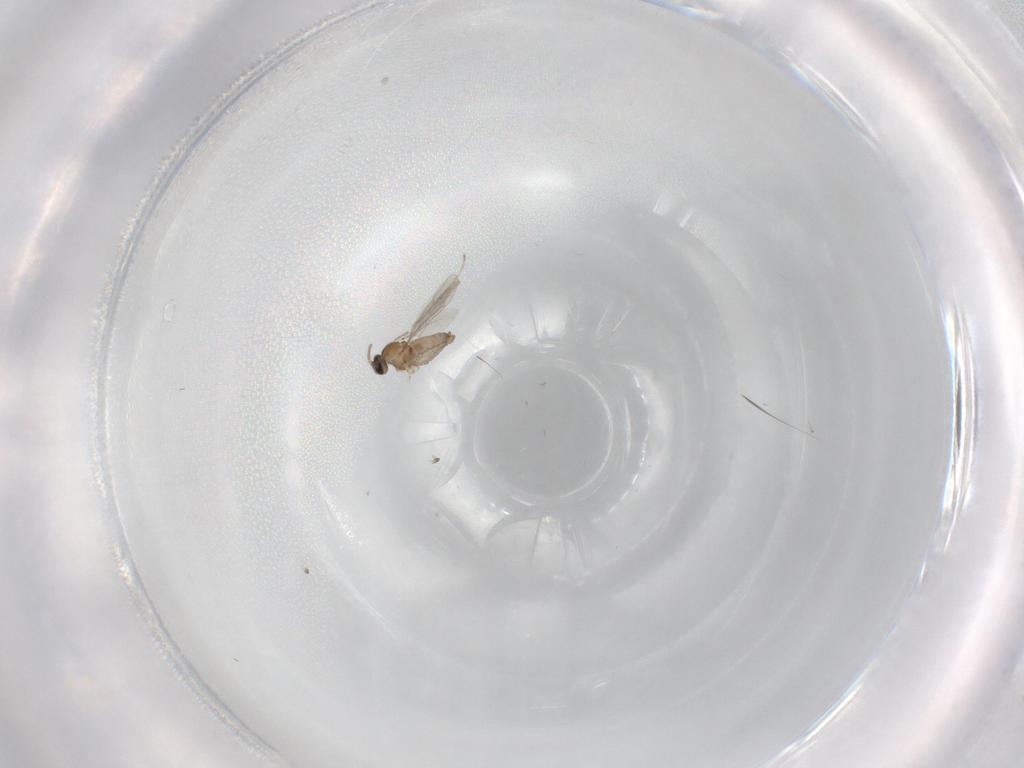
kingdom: Animalia
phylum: Arthropoda
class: Insecta
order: Diptera
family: Cecidomyiidae
